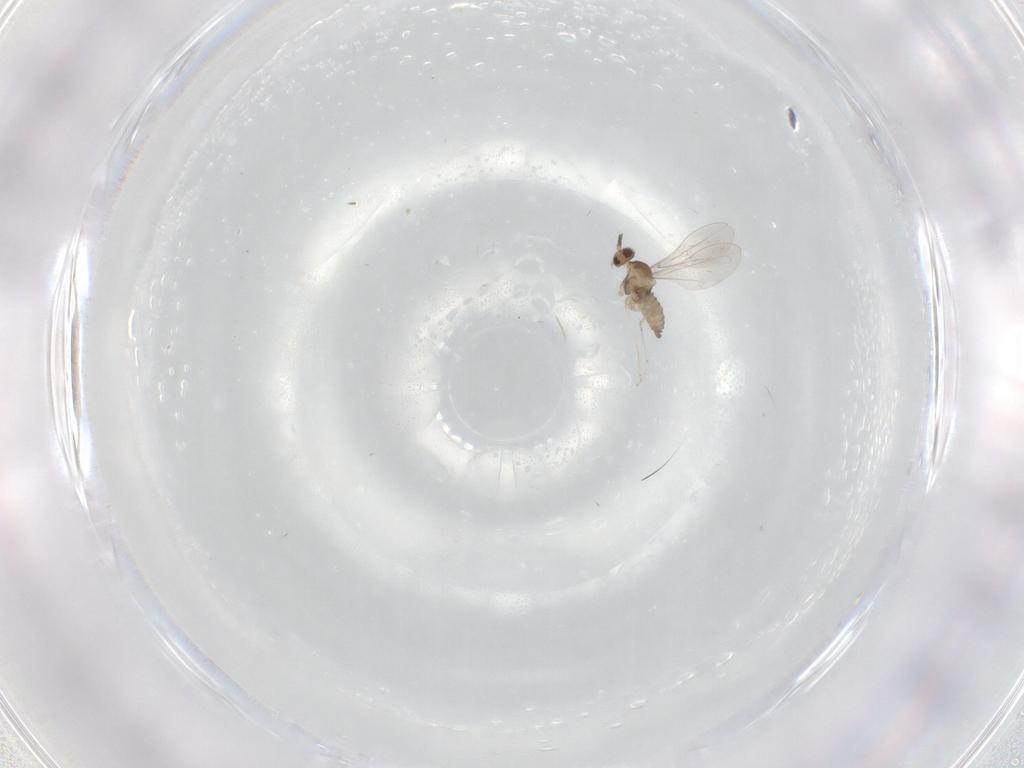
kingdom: Animalia
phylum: Arthropoda
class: Insecta
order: Diptera
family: Cecidomyiidae
